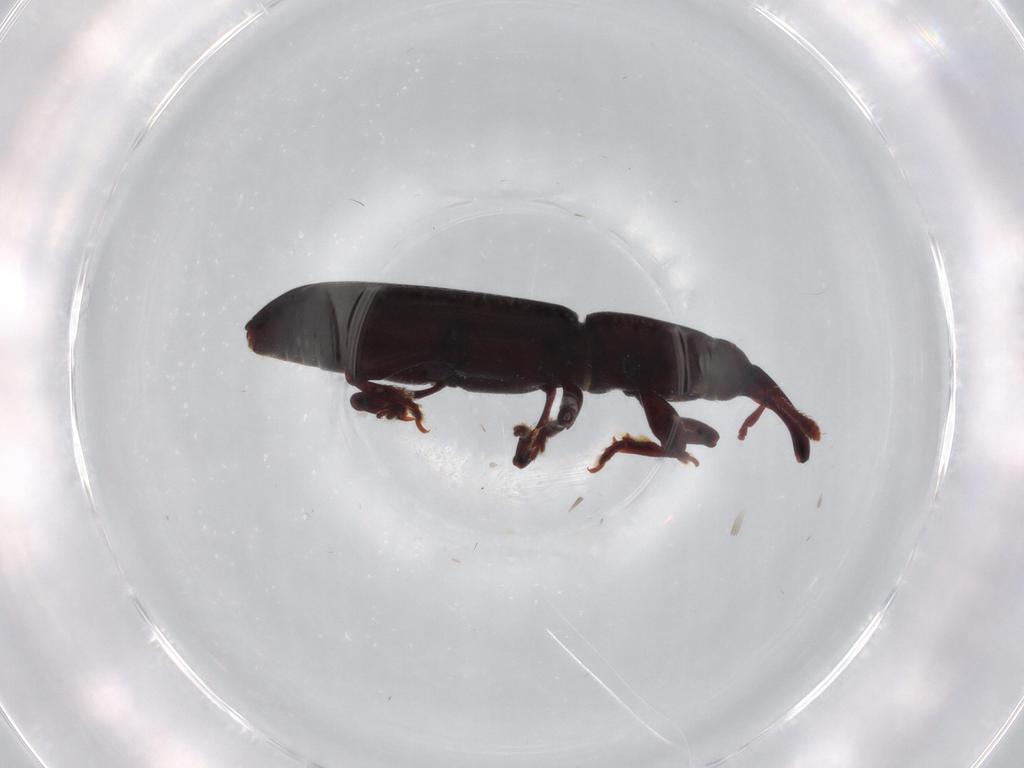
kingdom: Animalia
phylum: Arthropoda
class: Insecta
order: Coleoptera
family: Curculionidae
